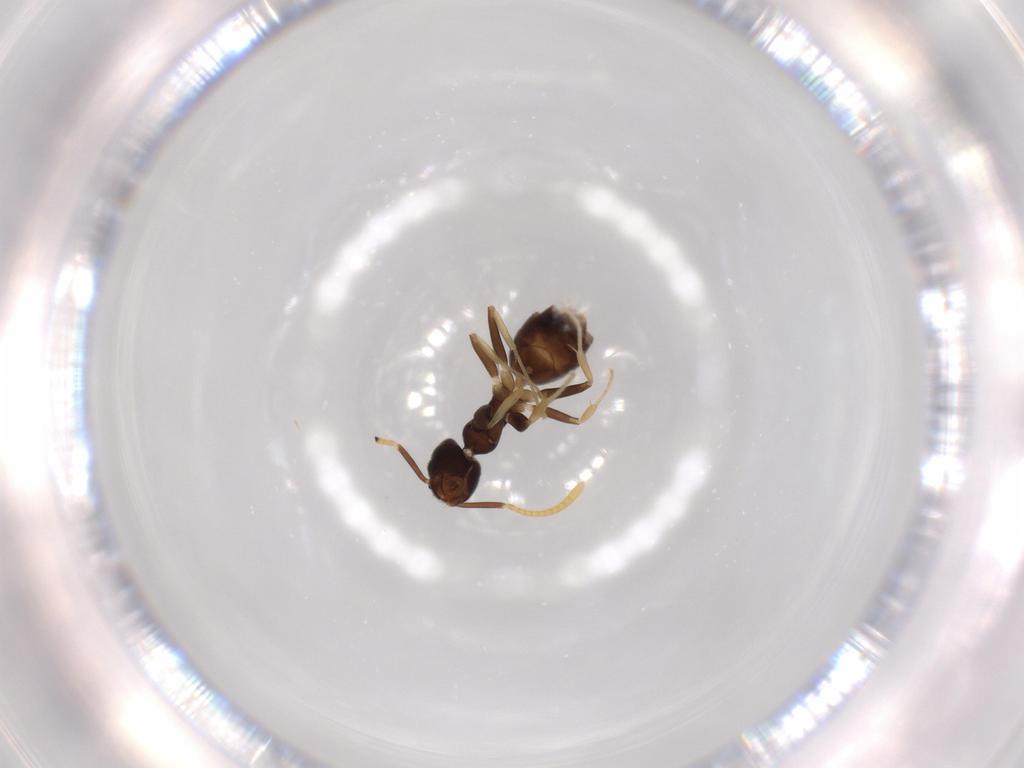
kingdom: Animalia
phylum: Arthropoda
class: Insecta
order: Hymenoptera
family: Formicidae
